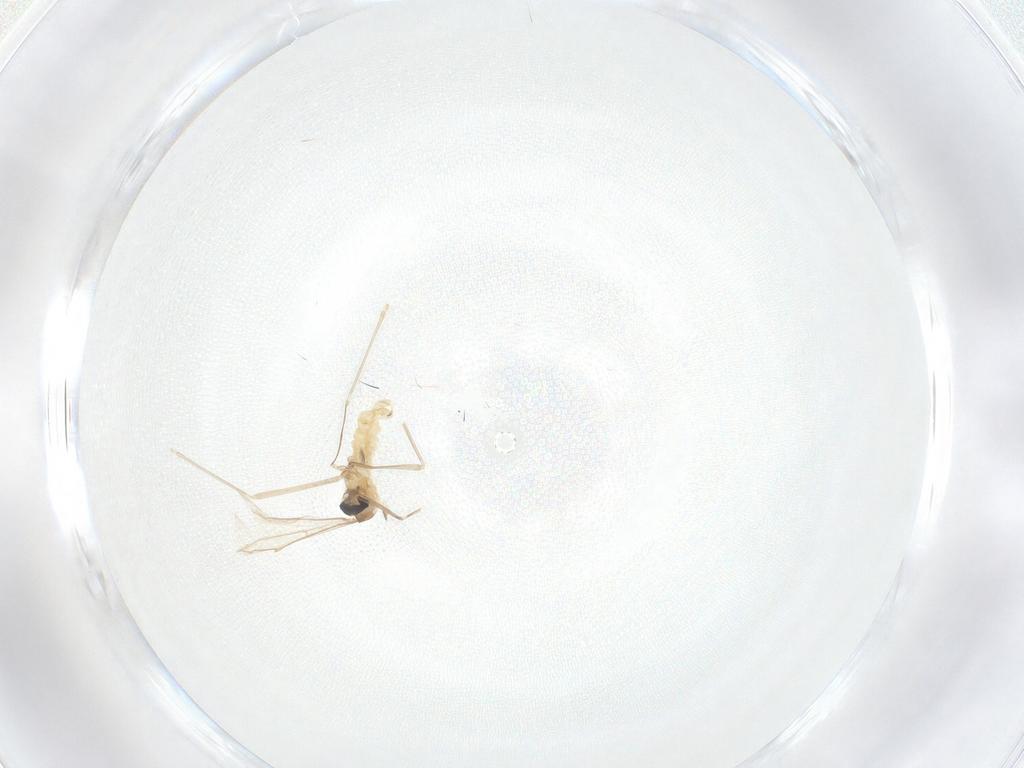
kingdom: Animalia
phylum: Arthropoda
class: Insecta
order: Diptera
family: Cecidomyiidae
